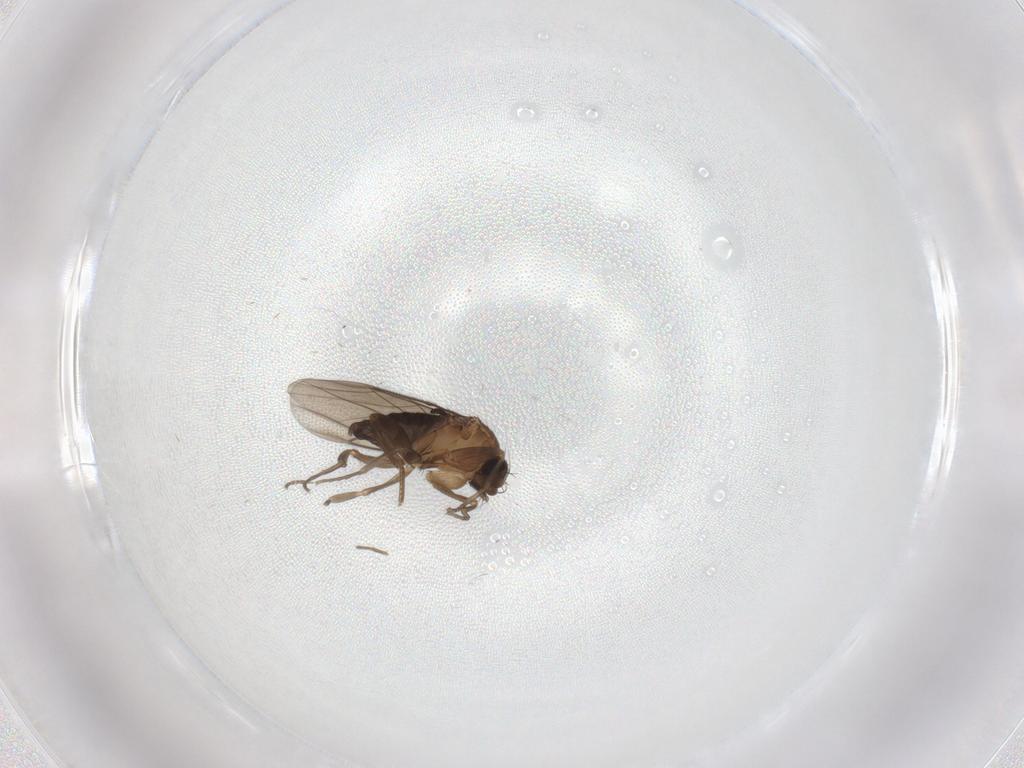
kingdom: Animalia
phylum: Arthropoda
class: Insecta
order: Diptera
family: Phoridae
